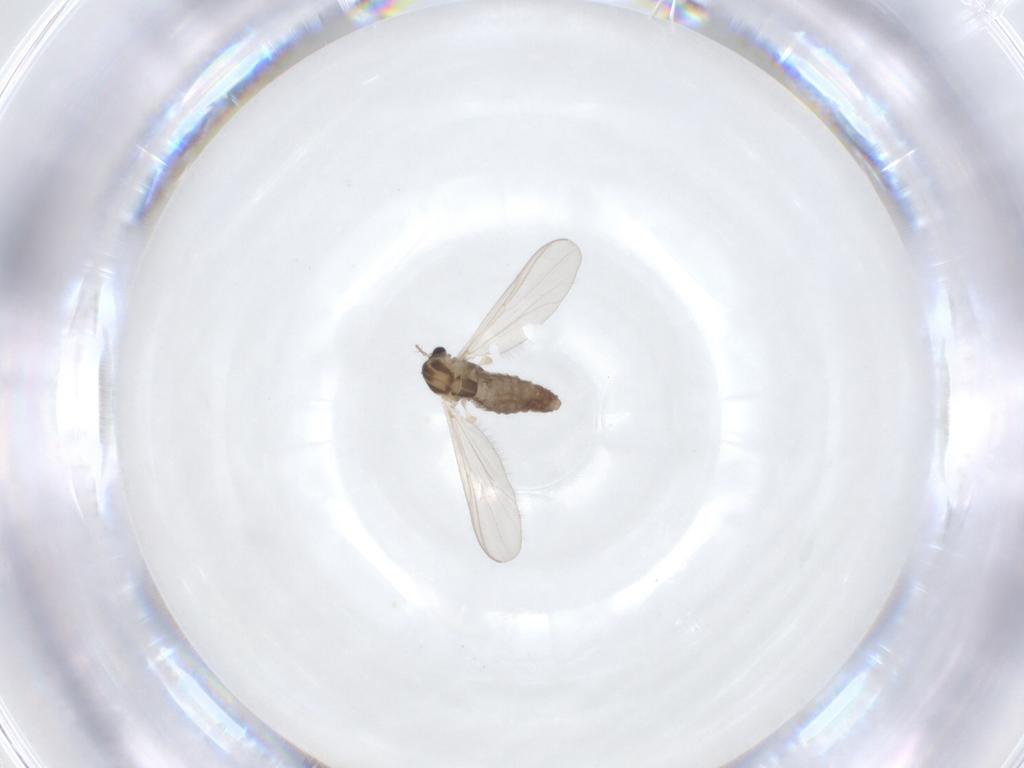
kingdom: Animalia
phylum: Arthropoda
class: Insecta
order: Diptera
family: Chironomidae
